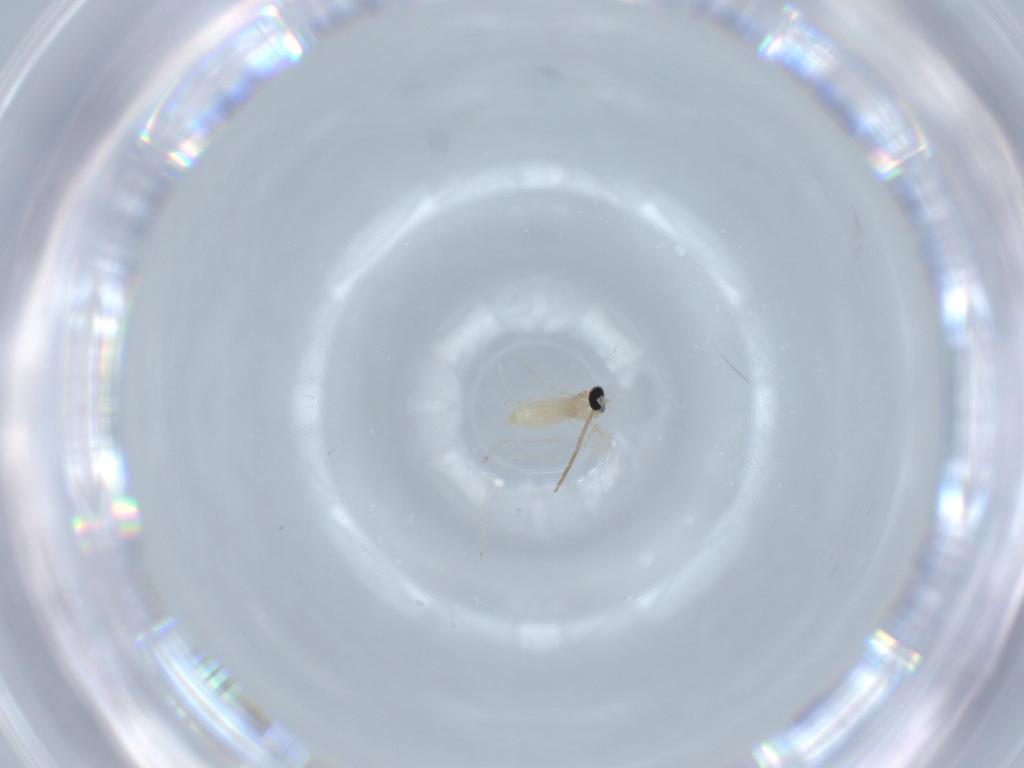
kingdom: Animalia
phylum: Arthropoda
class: Insecta
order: Diptera
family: Cecidomyiidae
